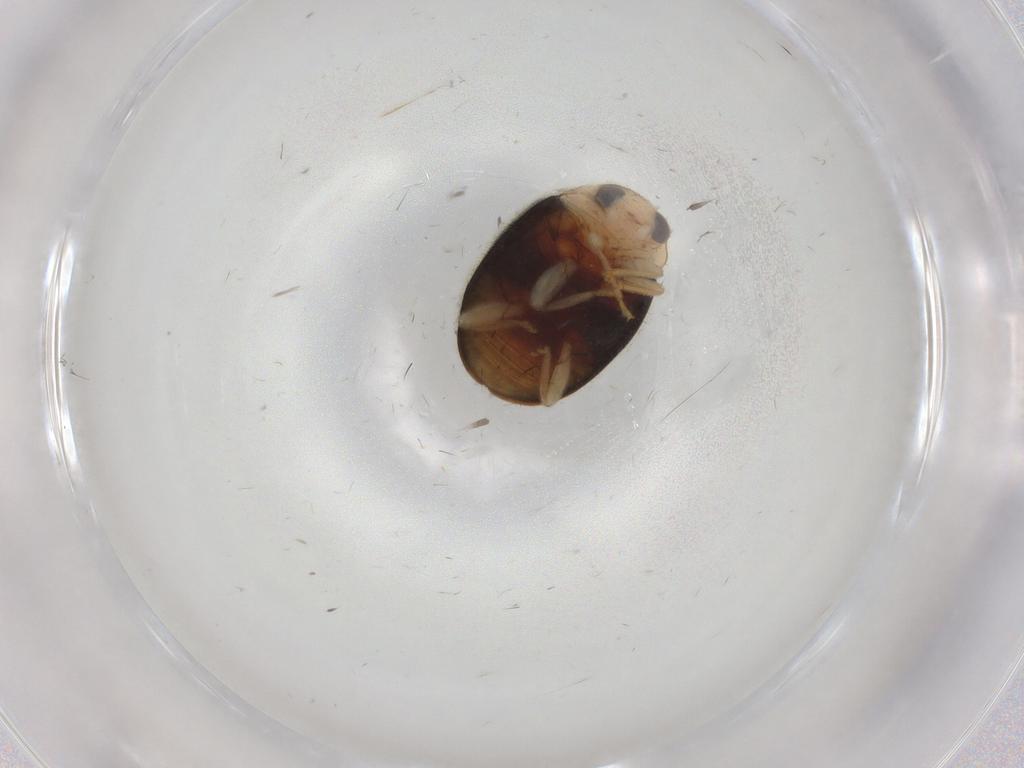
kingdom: Animalia
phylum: Arthropoda
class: Insecta
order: Coleoptera
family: Coccinellidae
